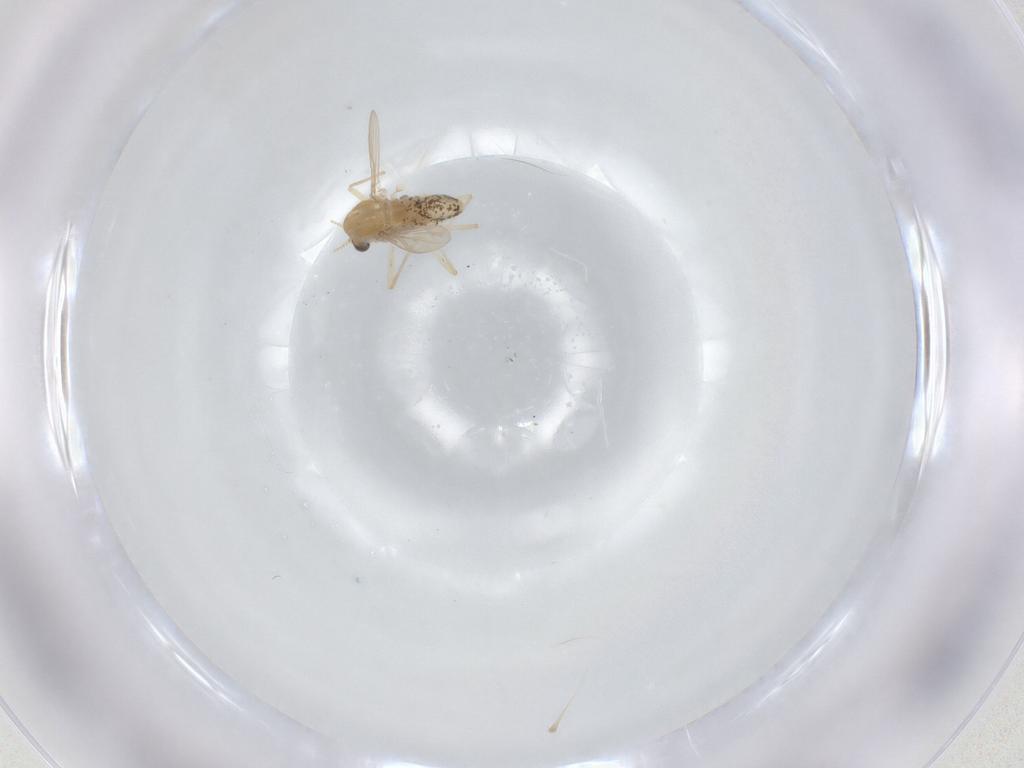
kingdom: Animalia
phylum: Arthropoda
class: Insecta
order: Diptera
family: Chironomidae
